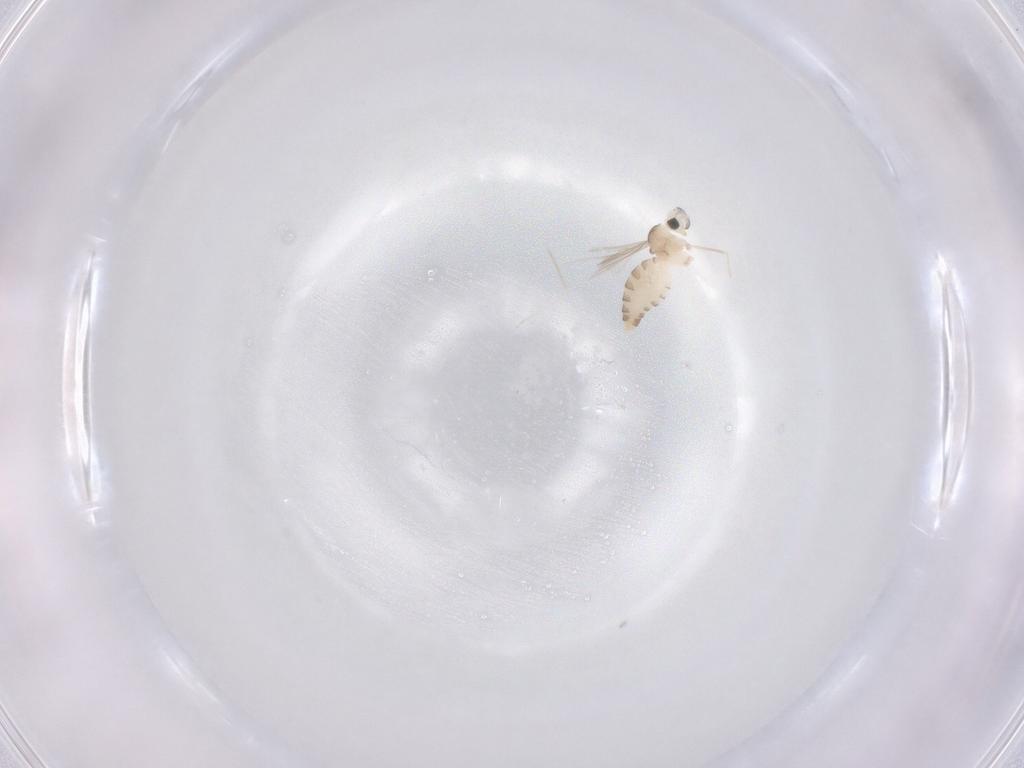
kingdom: Animalia
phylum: Arthropoda
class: Insecta
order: Diptera
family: Cecidomyiidae
